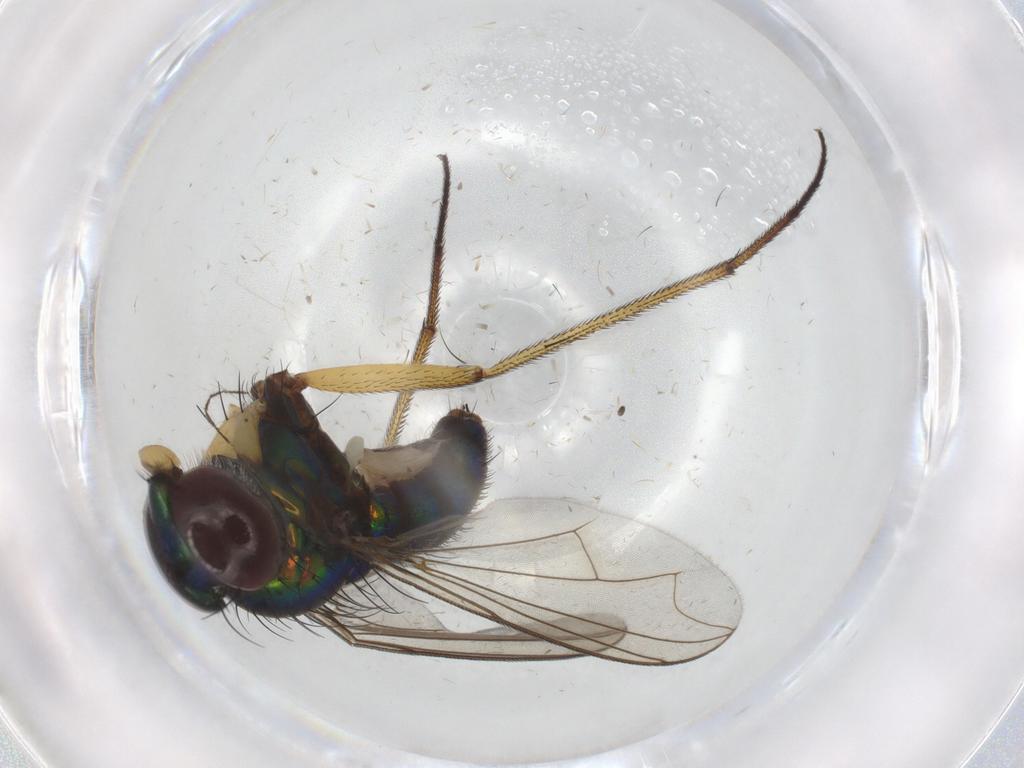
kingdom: Animalia
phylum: Arthropoda
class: Insecta
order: Diptera
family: Dolichopodidae
